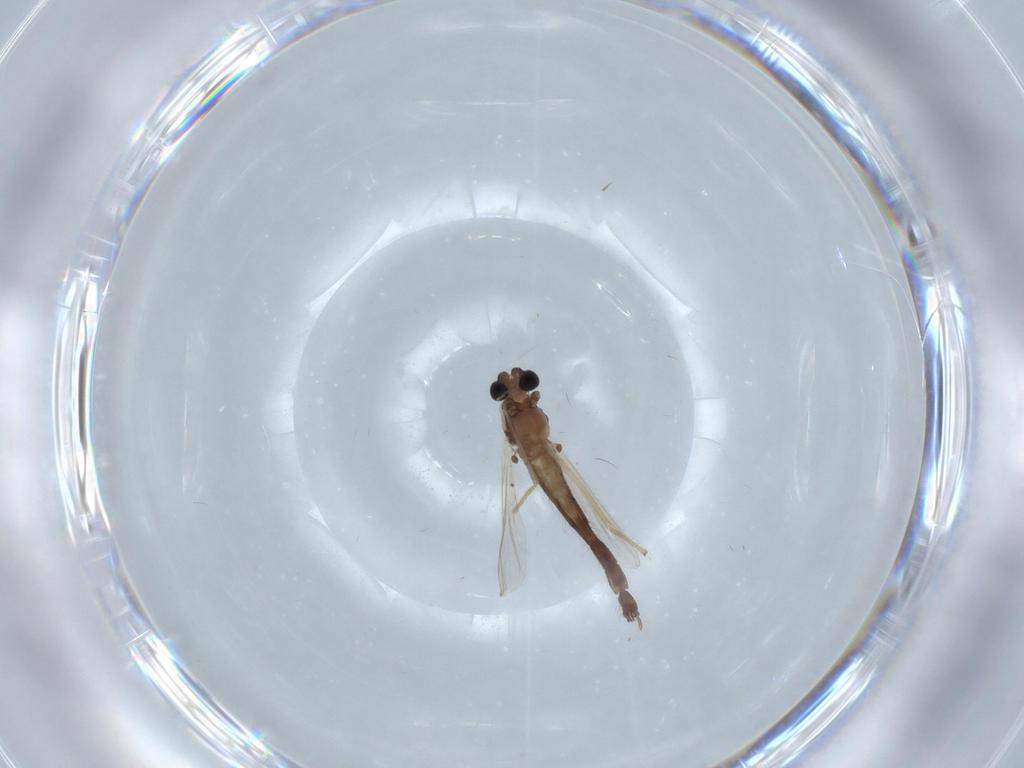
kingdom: Animalia
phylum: Arthropoda
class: Insecta
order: Diptera
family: Chironomidae
